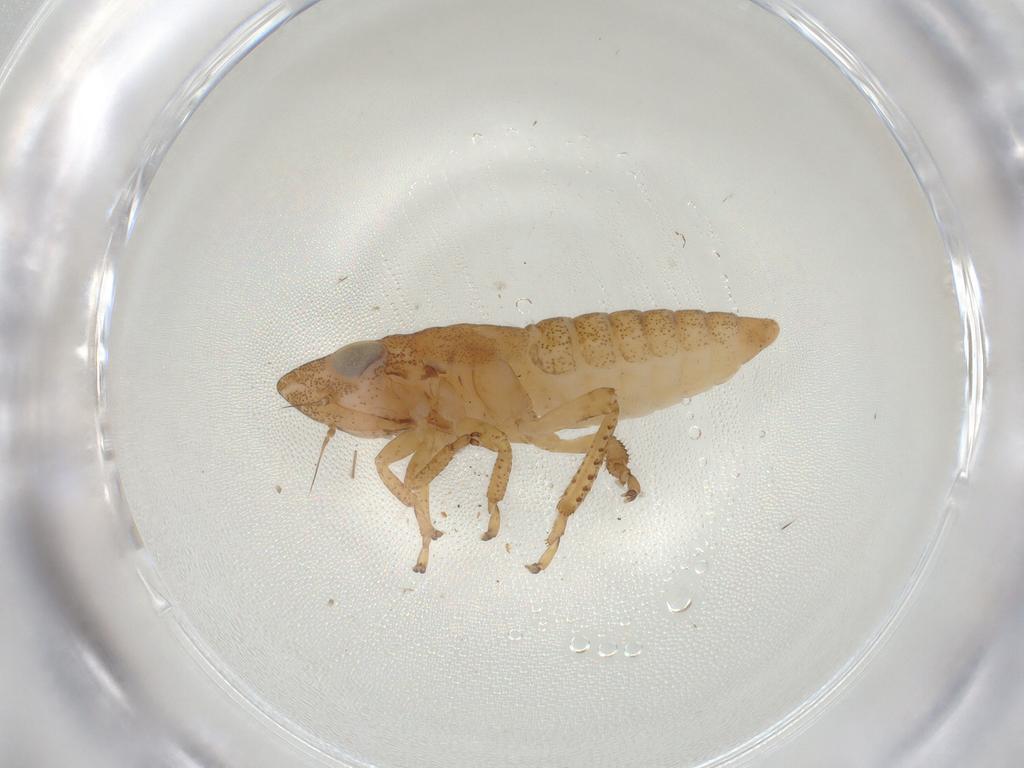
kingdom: Animalia
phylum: Arthropoda
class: Insecta
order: Hemiptera
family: Cicadellidae
